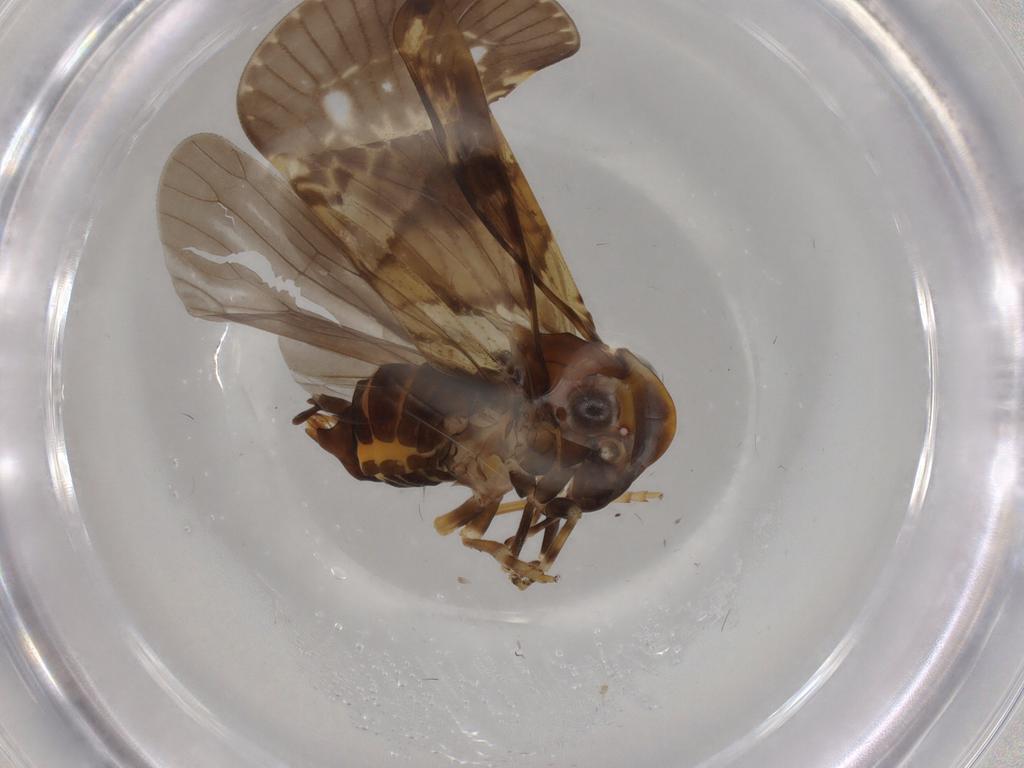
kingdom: Animalia
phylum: Arthropoda
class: Insecta
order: Hemiptera
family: Cixiidae
